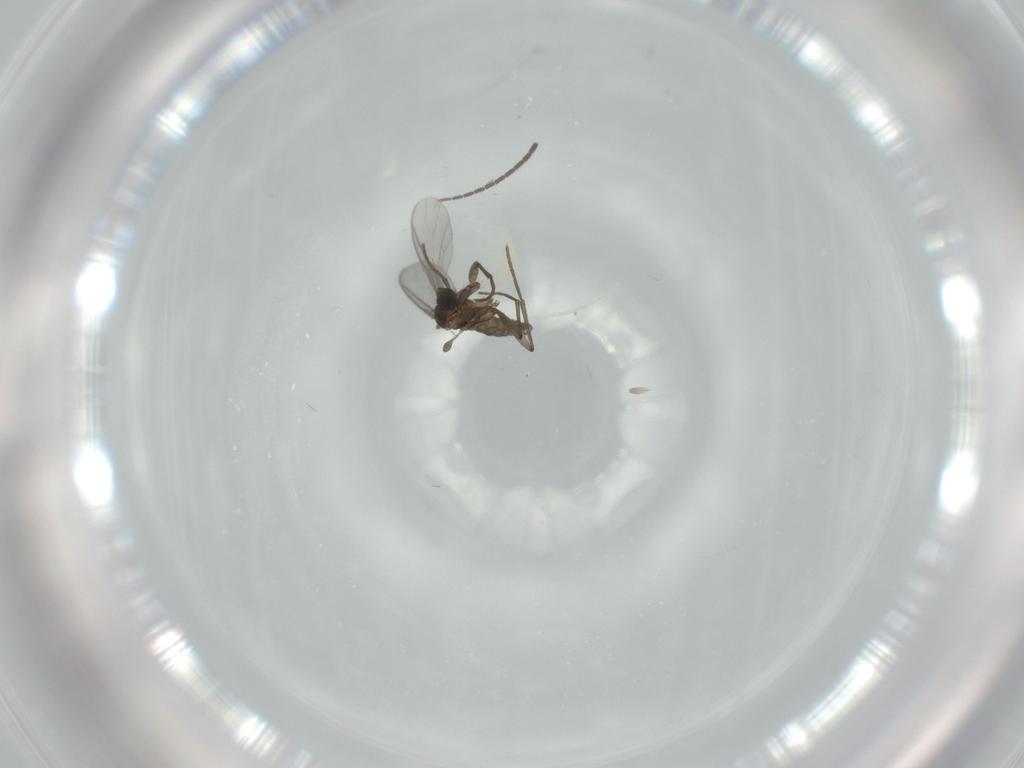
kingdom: Animalia
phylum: Arthropoda
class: Insecta
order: Diptera
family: Sciaridae
